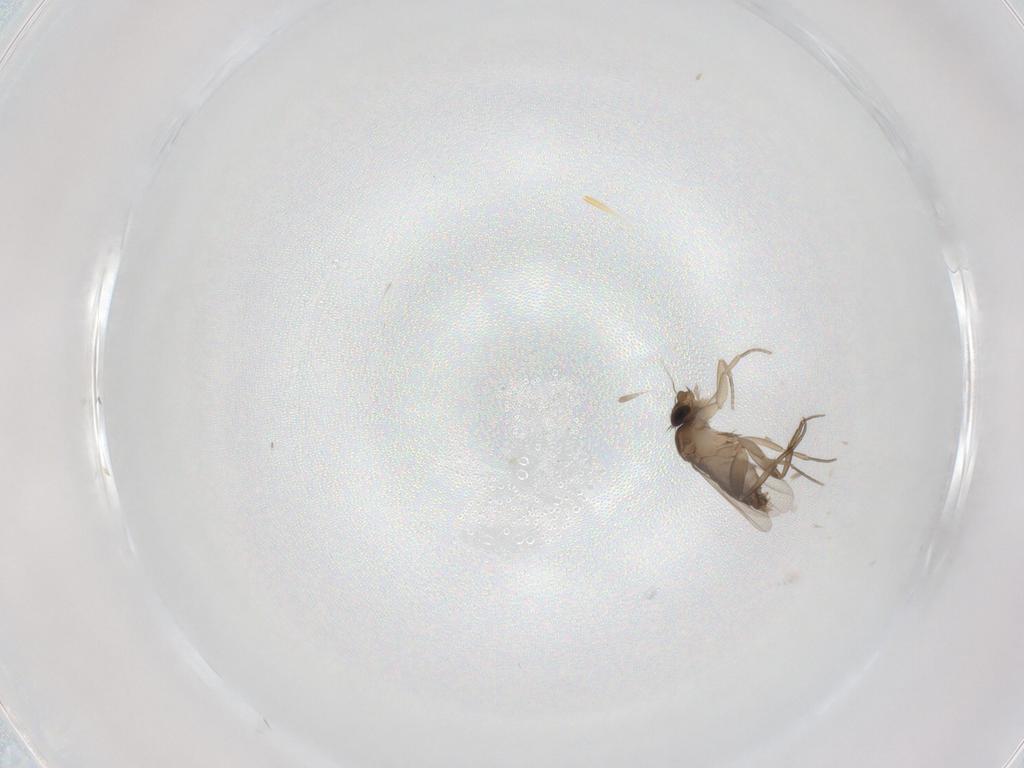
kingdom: Animalia
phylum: Arthropoda
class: Insecta
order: Diptera
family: Phoridae
